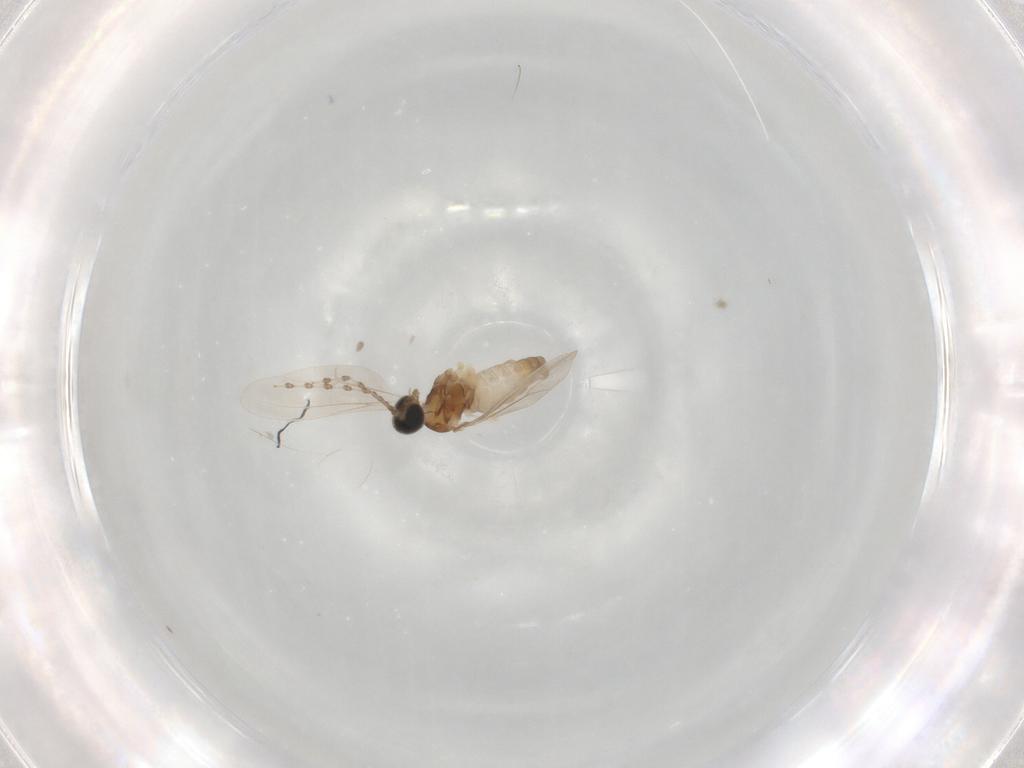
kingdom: Animalia
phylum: Arthropoda
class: Insecta
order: Diptera
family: Cecidomyiidae
